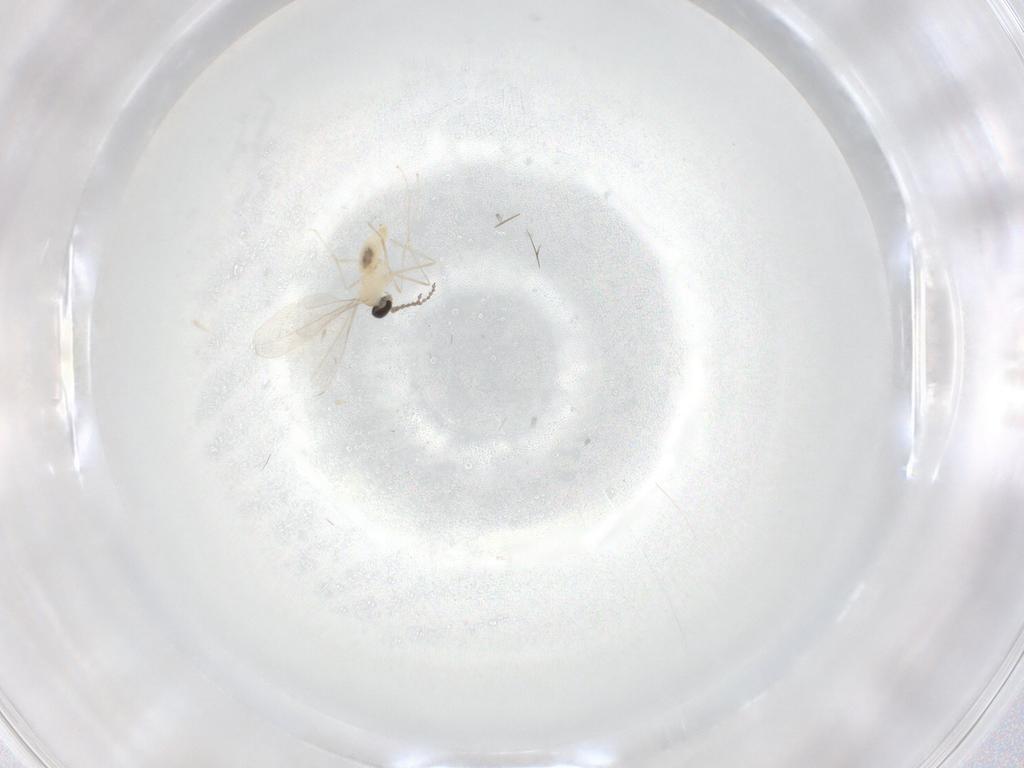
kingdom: Animalia
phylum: Arthropoda
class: Insecta
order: Diptera
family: Cecidomyiidae
